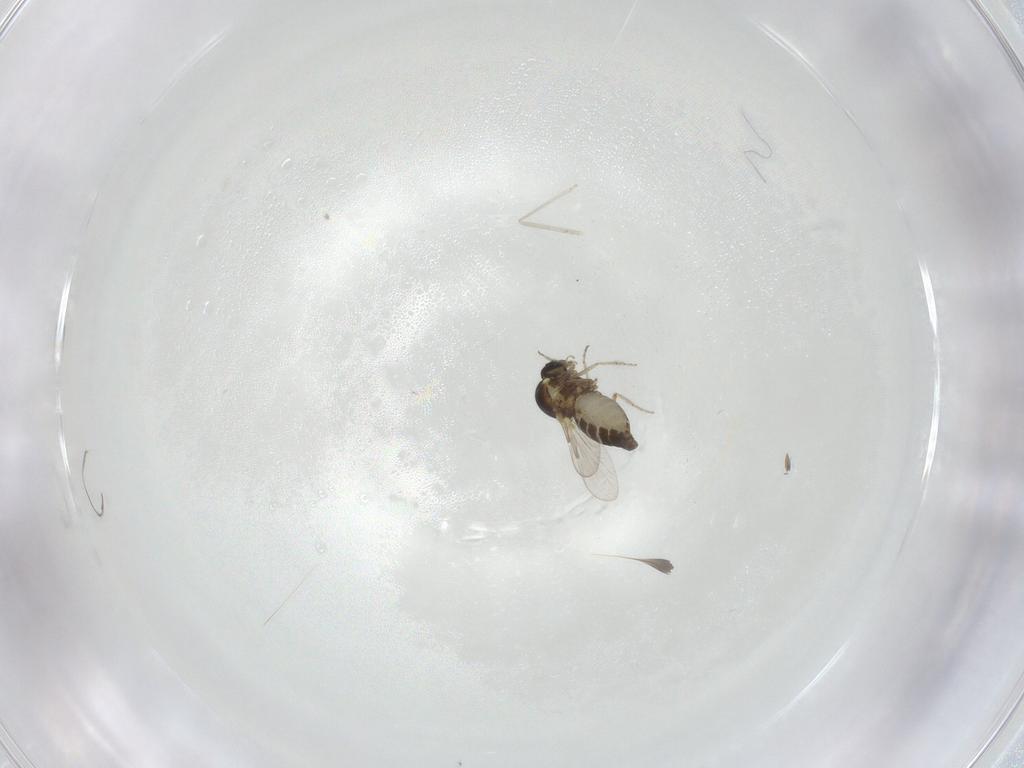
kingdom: Animalia
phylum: Arthropoda
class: Insecta
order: Diptera
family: Ceratopogonidae
